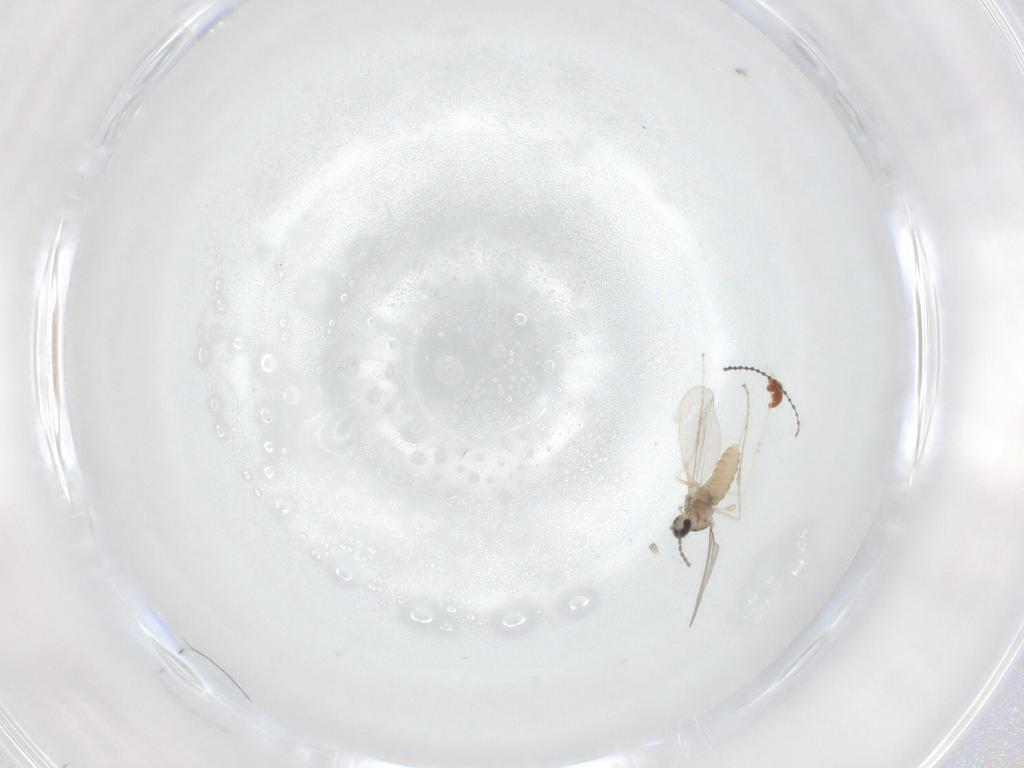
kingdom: Animalia
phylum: Arthropoda
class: Insecta
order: Diptera
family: Cecidomyiidae
